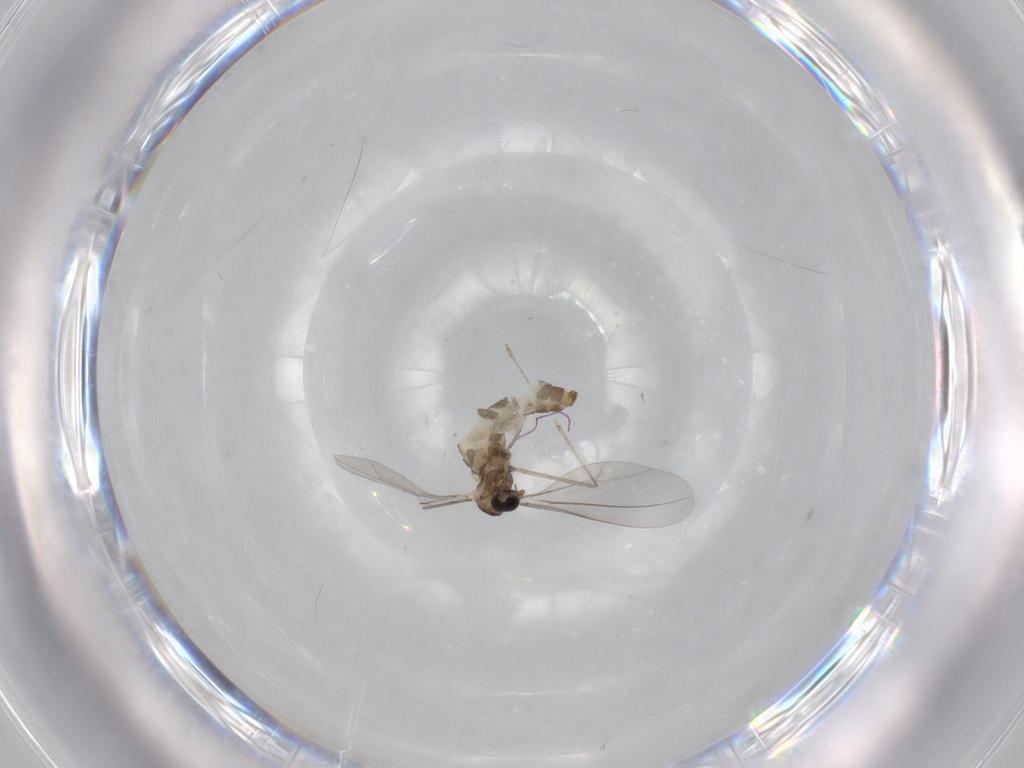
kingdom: Animalia
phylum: Arthropoda
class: Insecta
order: Diptera
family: Cecidomyiidae
